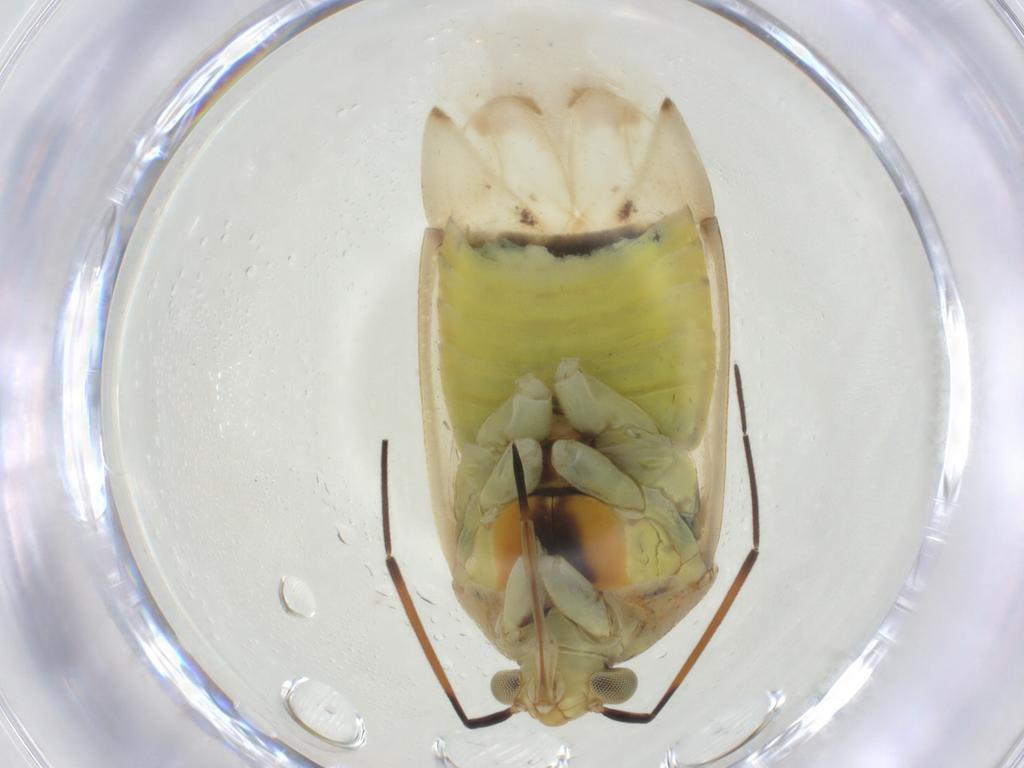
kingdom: Animalia
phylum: Arthropoda
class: Insecta
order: Hemiptera
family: Miridae
